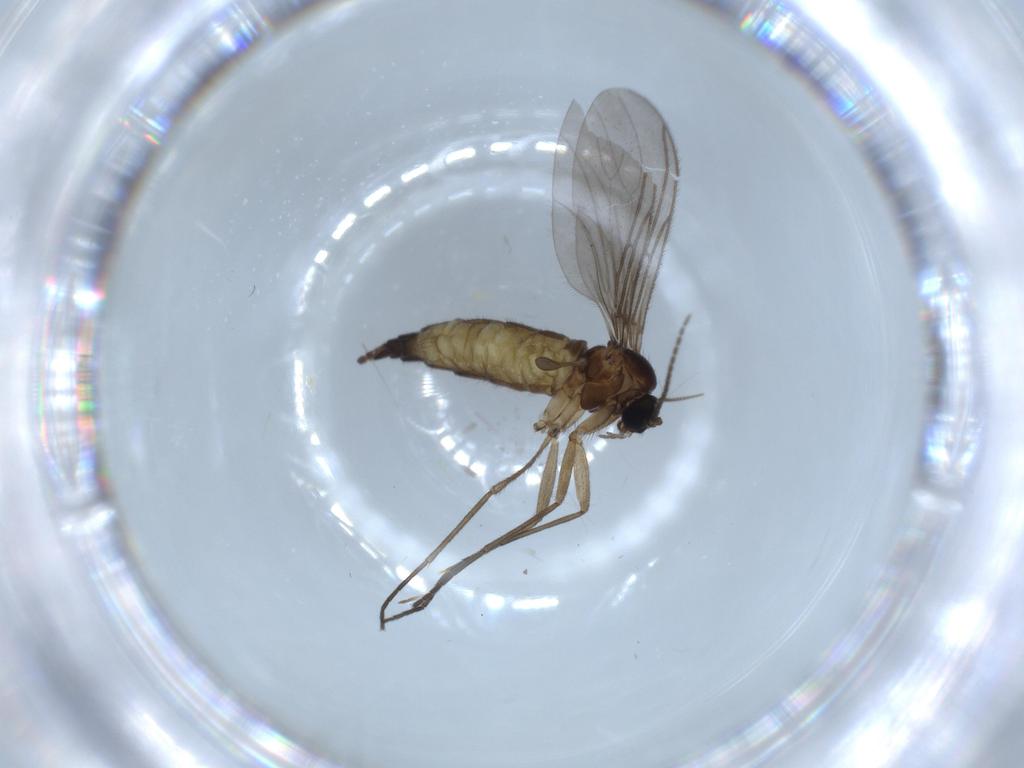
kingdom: Animalia
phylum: Arthropoda
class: Insecta
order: Diptera
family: Sciaridae
